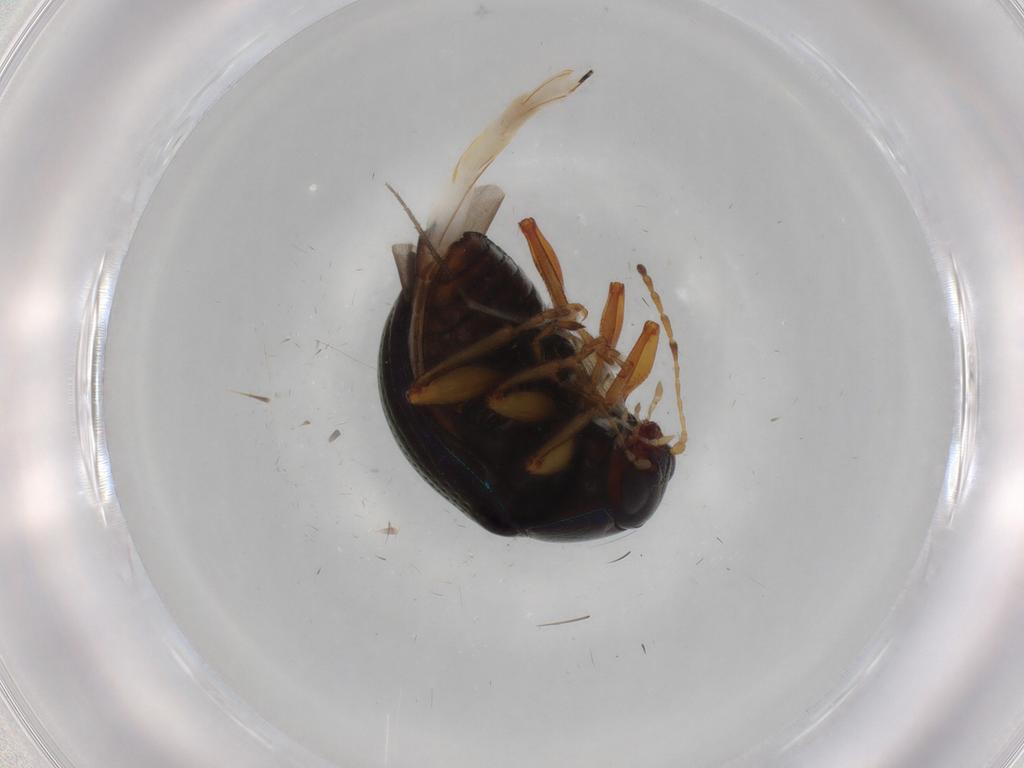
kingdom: Animalia
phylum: Arthropoda
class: Insecta
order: Coleoptera
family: Chrysomelidae
